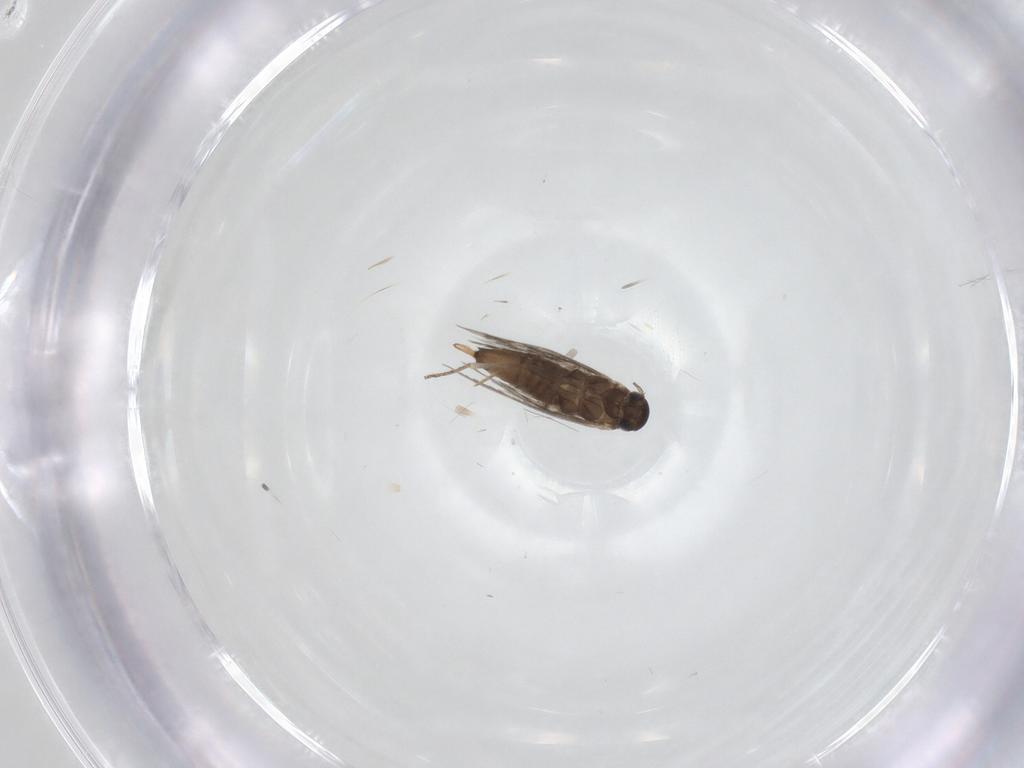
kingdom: Animalia
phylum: Arthropoda
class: Insecta
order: Lepidoptera
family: Heliozelidae
